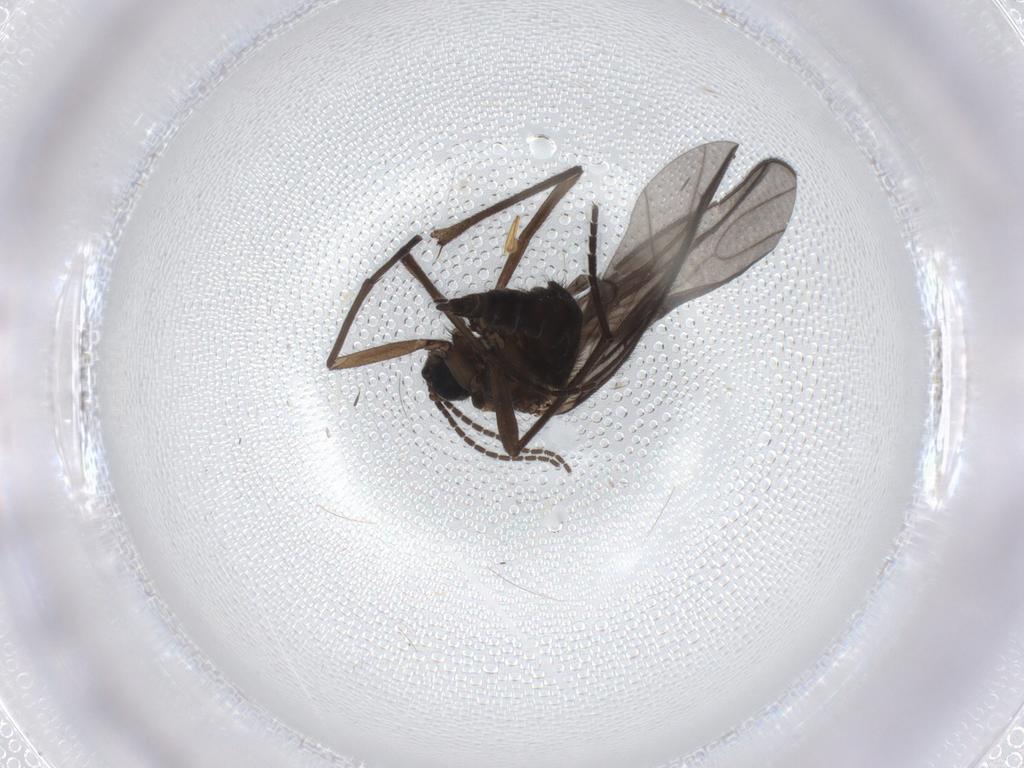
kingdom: Animalia
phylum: Arthropoda
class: Insecta
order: Diptera
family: Sciaridae
